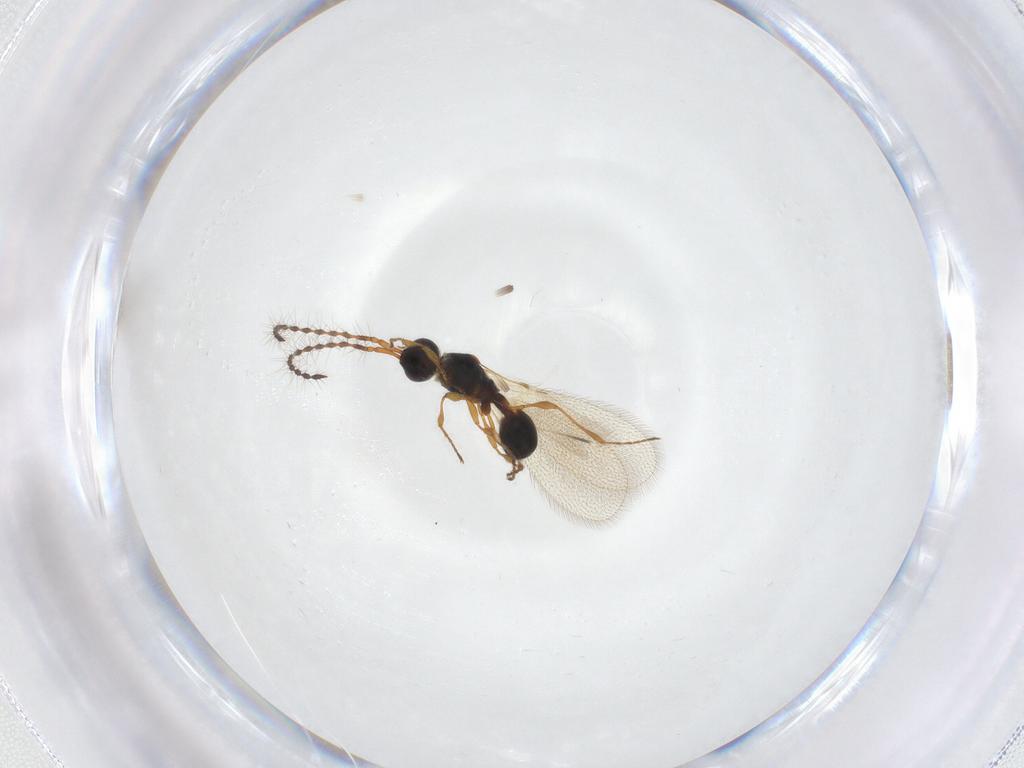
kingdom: Animalia
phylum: Arthropoda
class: Insecta
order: Hymenoptera
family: Diapriidae
